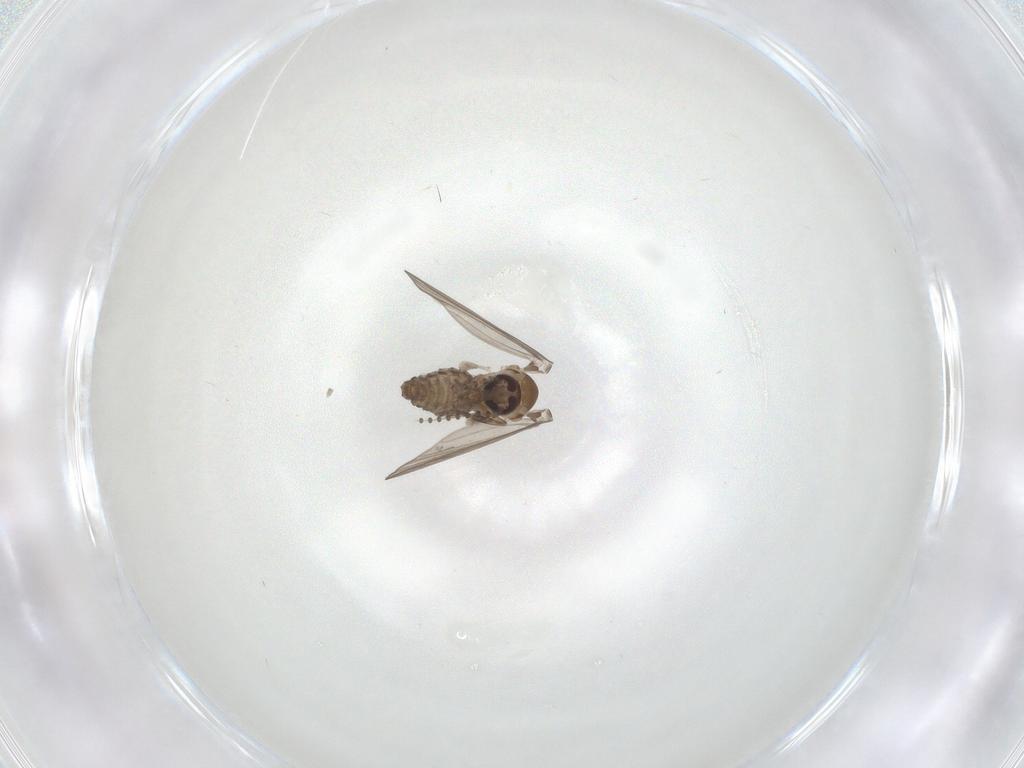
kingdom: Animalia
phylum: Arthropoda
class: Insecta
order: Diptera
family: Psychodidae
